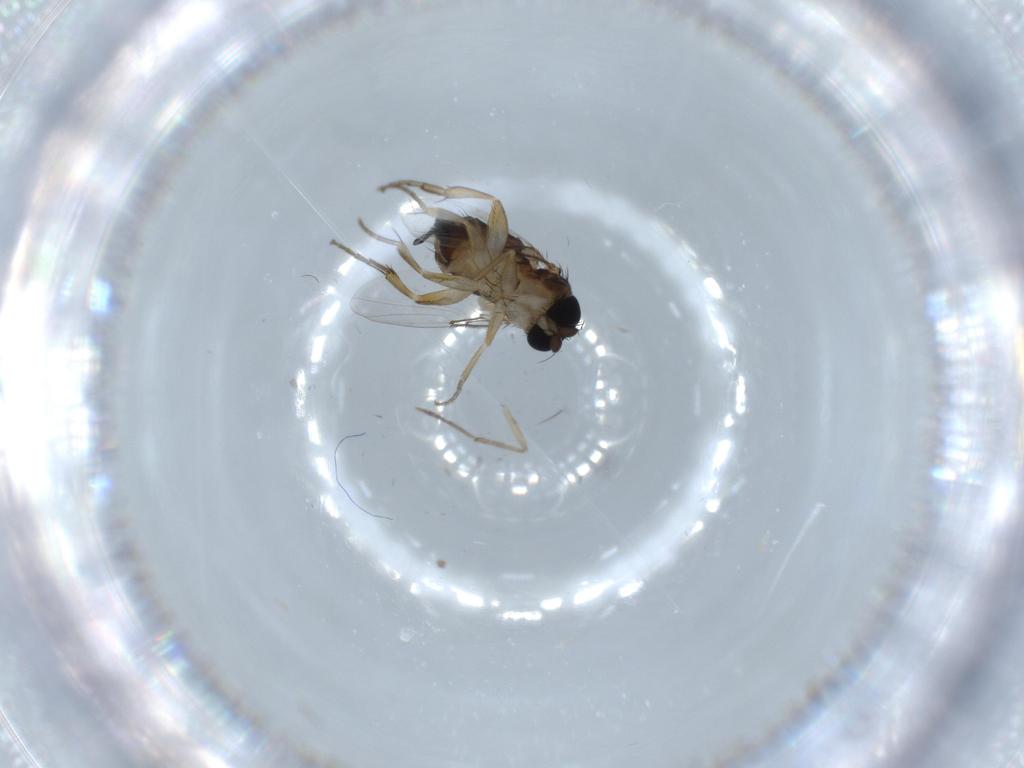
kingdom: Animalia
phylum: Arthropoda
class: Insecta
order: Diptera
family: Phoridae
